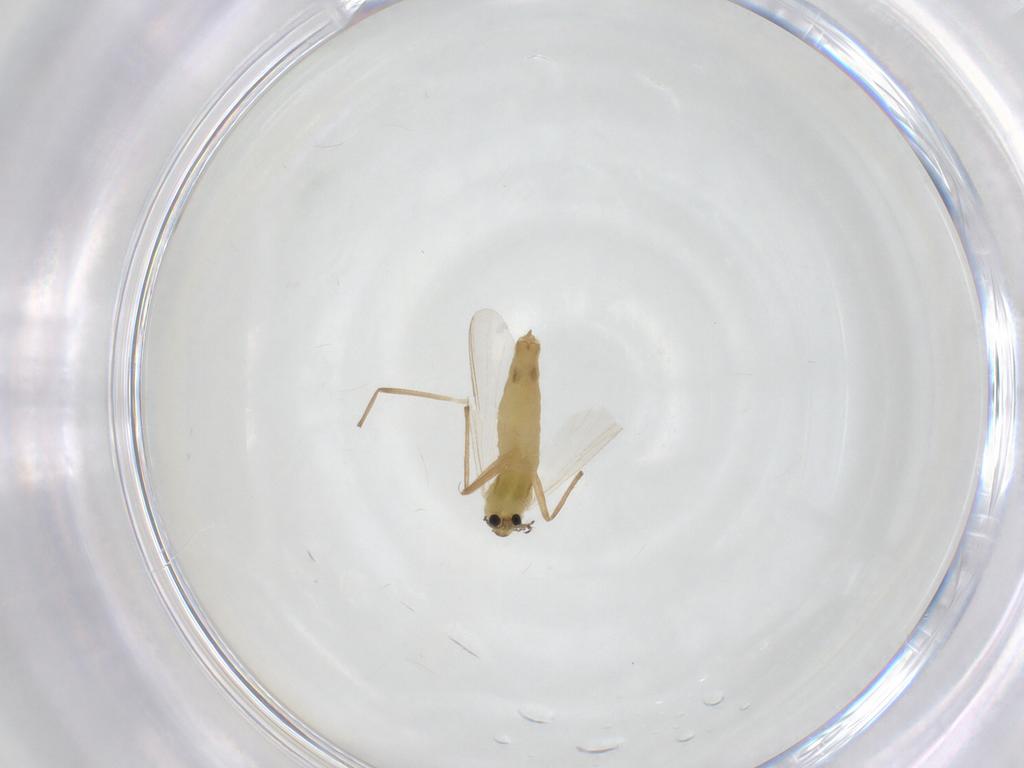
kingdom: Animalia
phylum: Arthropoda
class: Insecta
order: Diptera
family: Chironomidae
